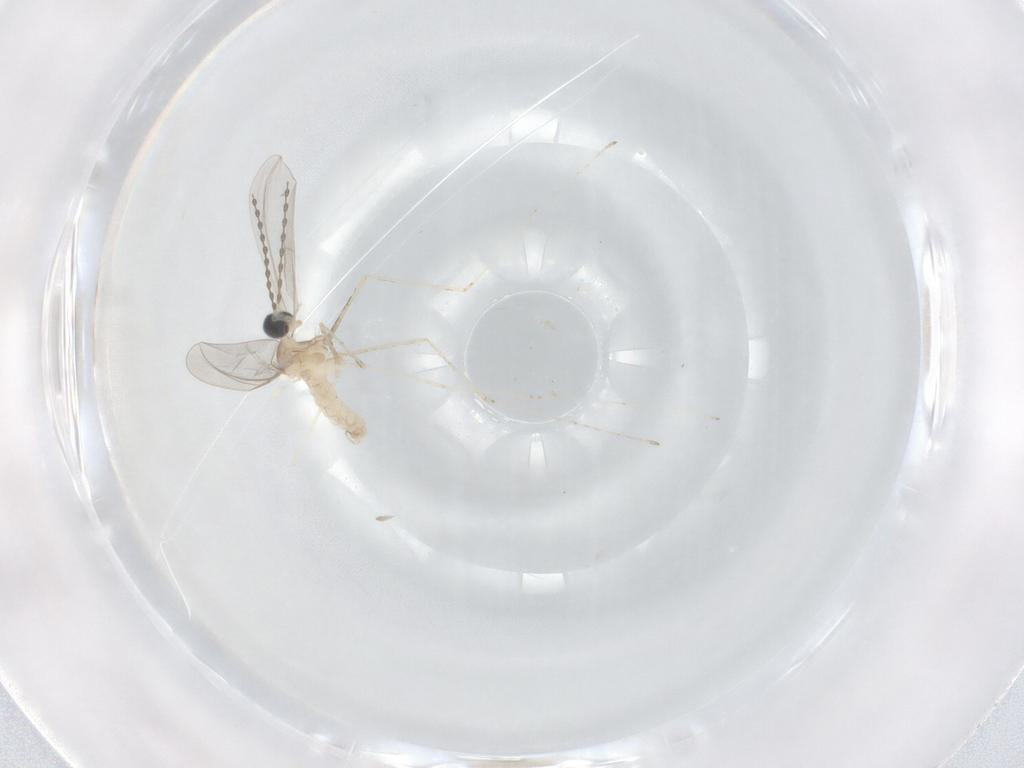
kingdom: Animalia
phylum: Arthropoda
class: Insecta
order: Diptera
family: Cecidomyiidae
